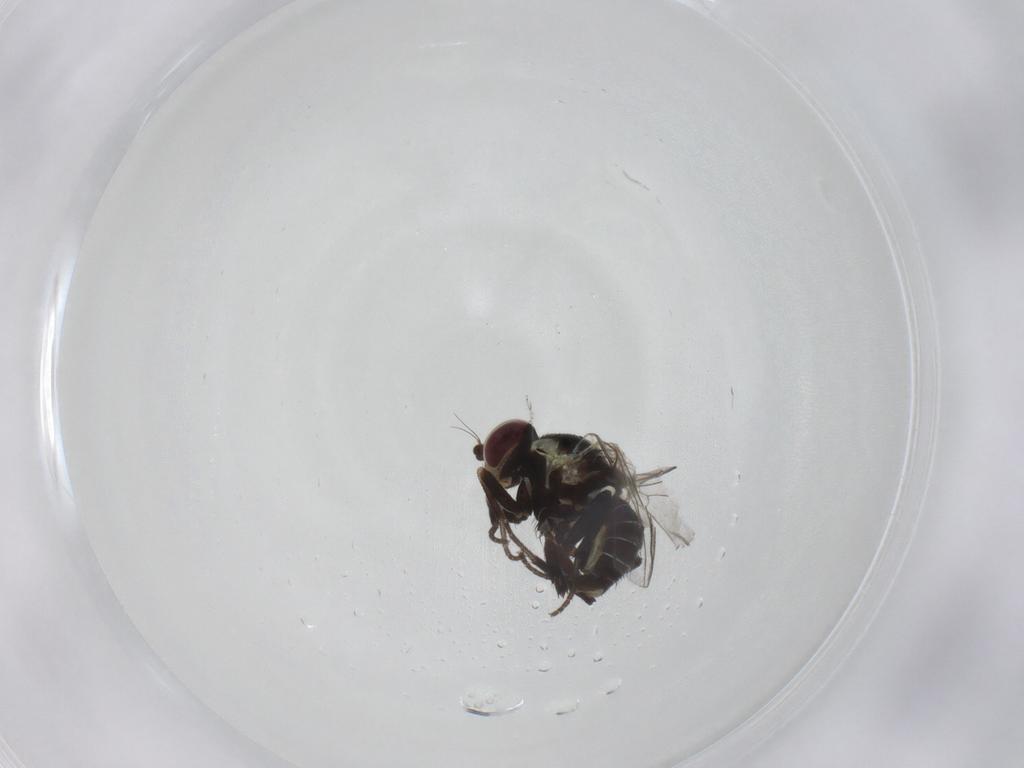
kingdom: Animalia
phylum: Arthropoda
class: Insecta
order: Diptera
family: Agromyzidae
